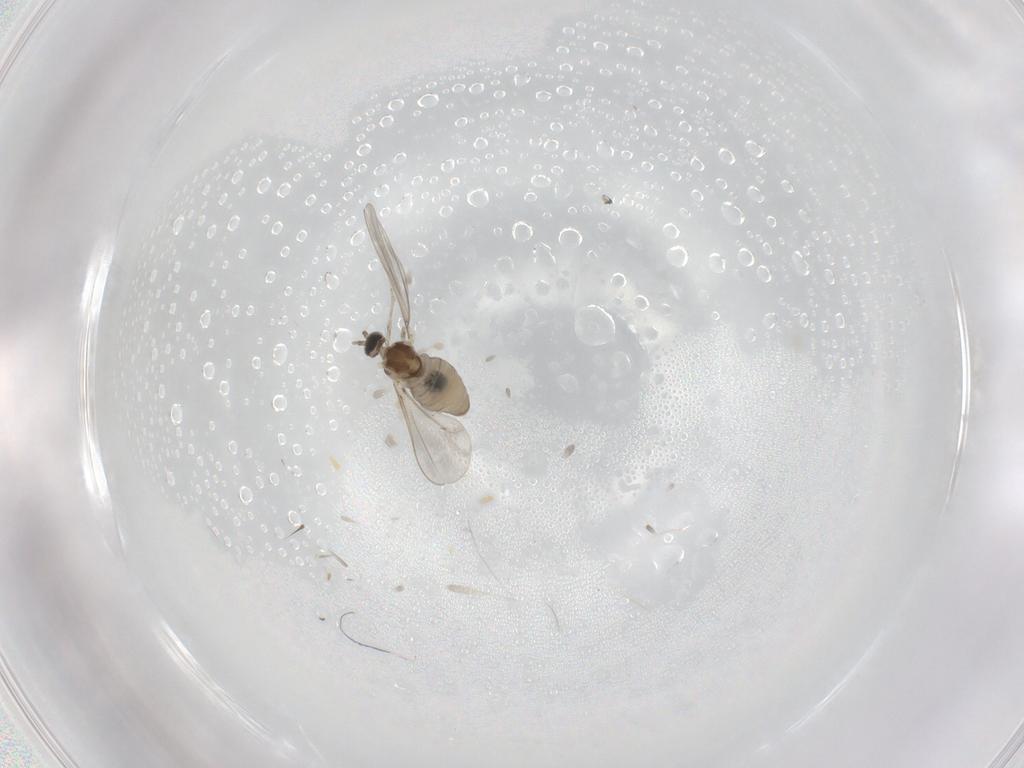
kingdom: Animalia
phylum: Arthropoda
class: Insecta
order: Diptera
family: Cecidomyiidae
